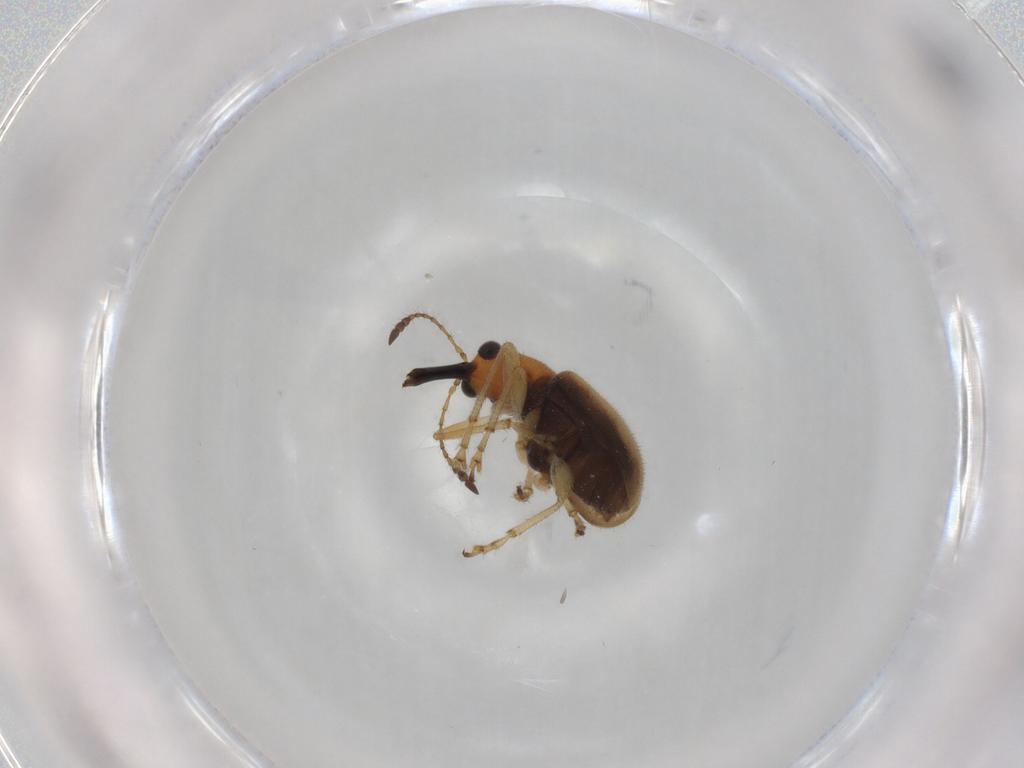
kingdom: Animalia
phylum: Arthropoda
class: Insecta
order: Coleoptera
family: Attelabidae
